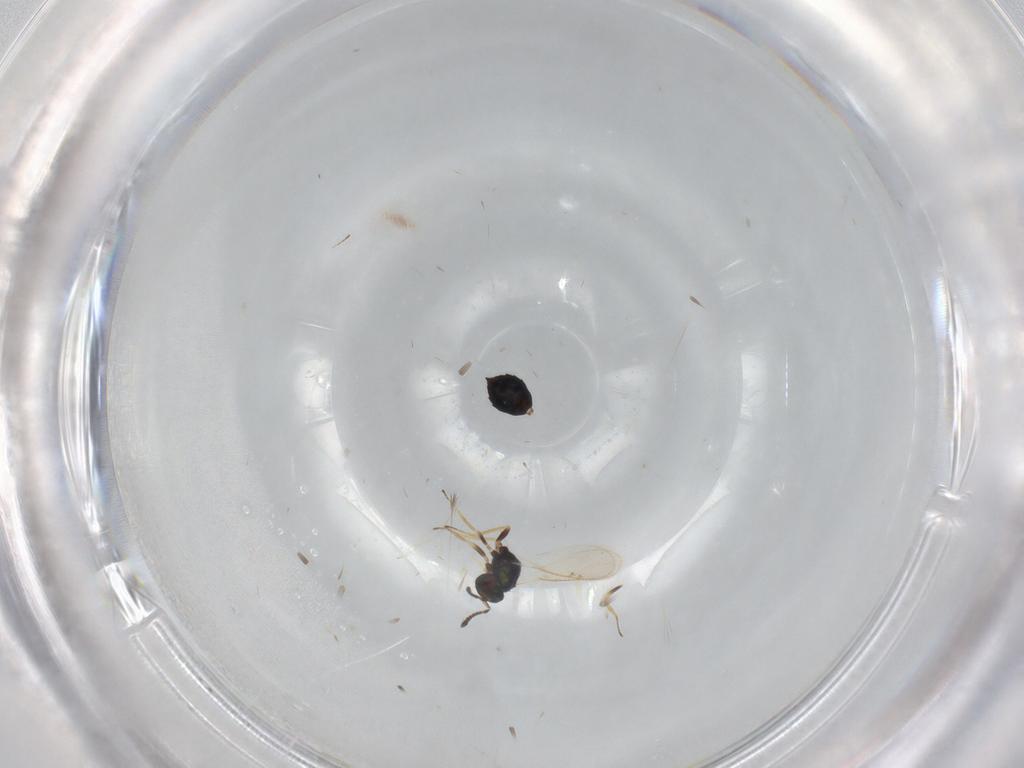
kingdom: Animalia
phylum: Arthropoda
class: Insecta
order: Hymenoptera
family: Tetracampidae
